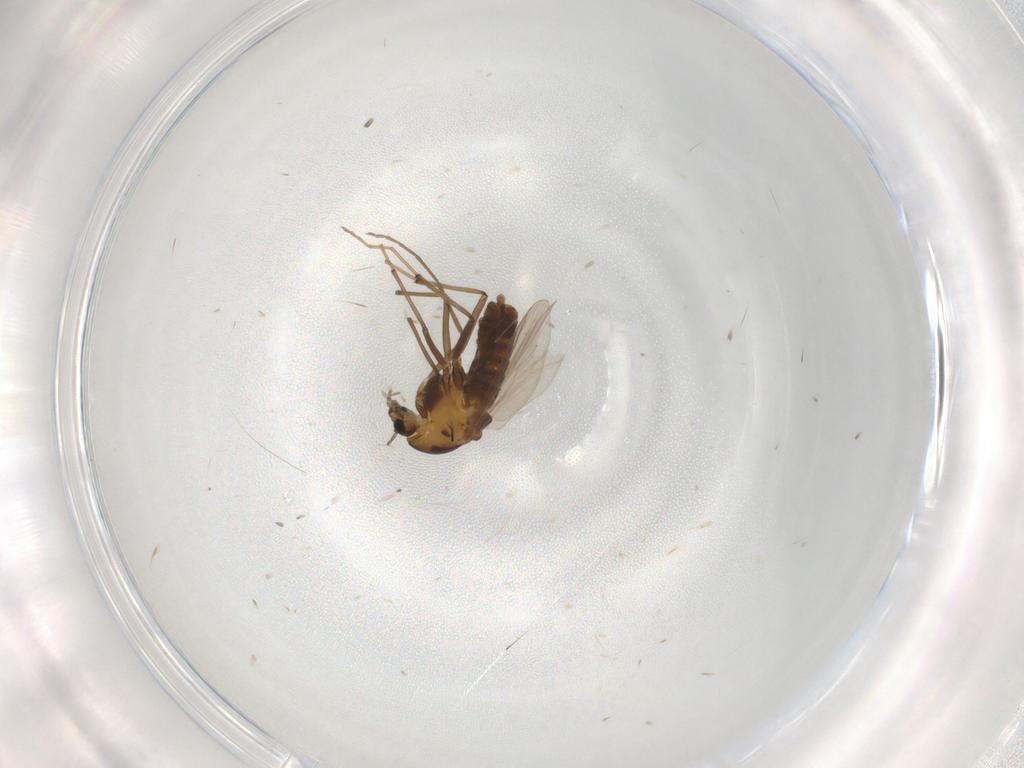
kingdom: Animalia
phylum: Arthropoda
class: Insecta
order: Diptera
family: Chironomidae
